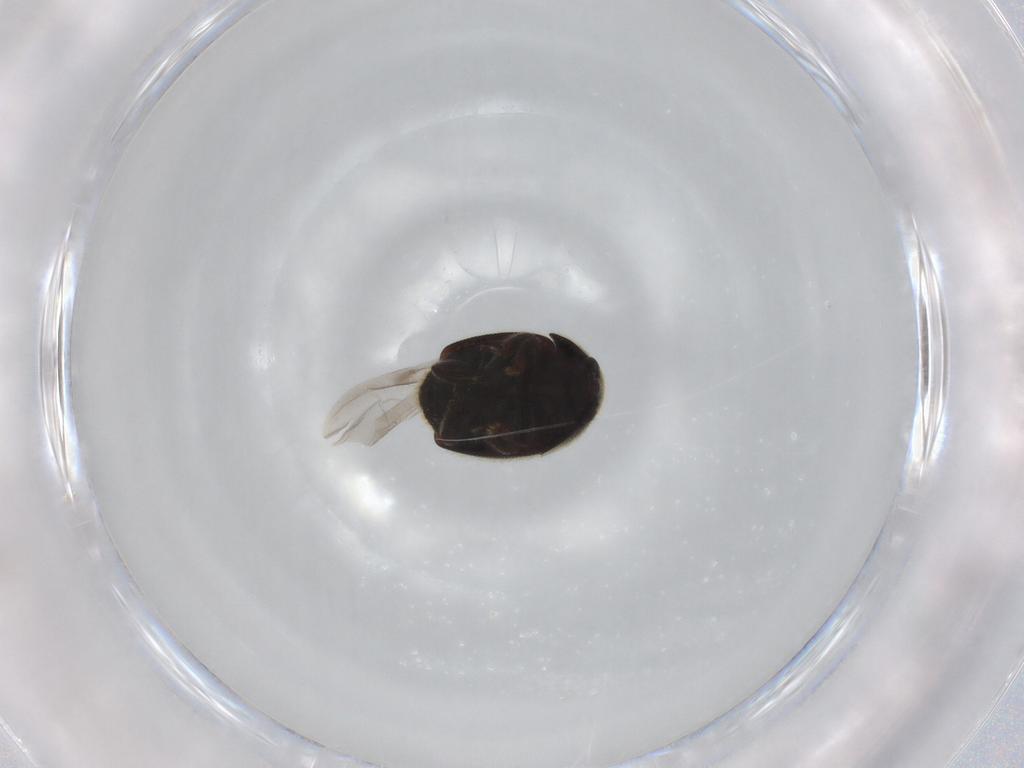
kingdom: Animalia
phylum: Arthropoda
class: Insecta
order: Coleoptera
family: Nitidulidae
